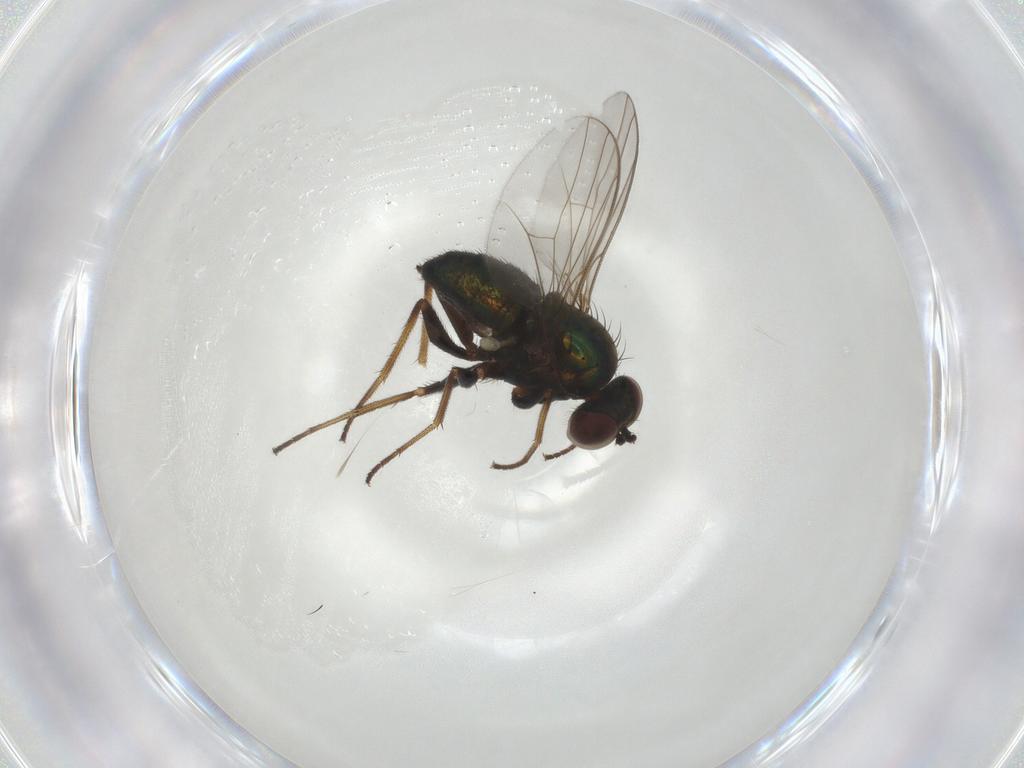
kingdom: Animalia
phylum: Arthropoda
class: Insecta
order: Diptera
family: Dolichopodidae
